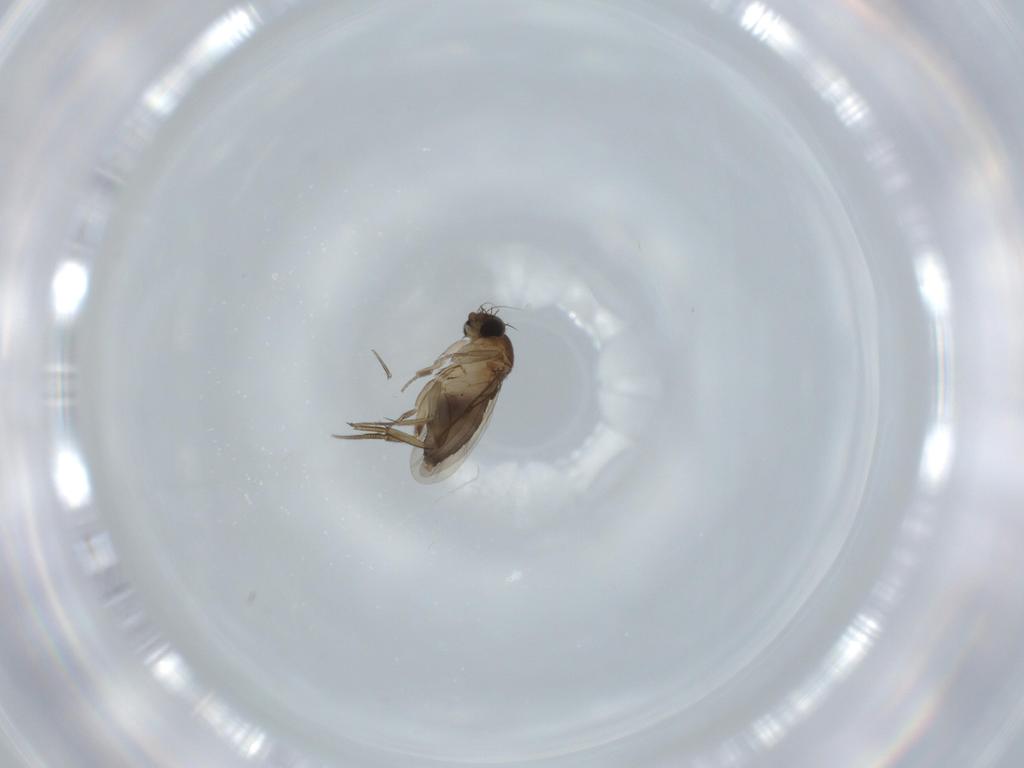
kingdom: Animalia
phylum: Arthropoda
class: Insecta
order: Diptera
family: Phoridae
